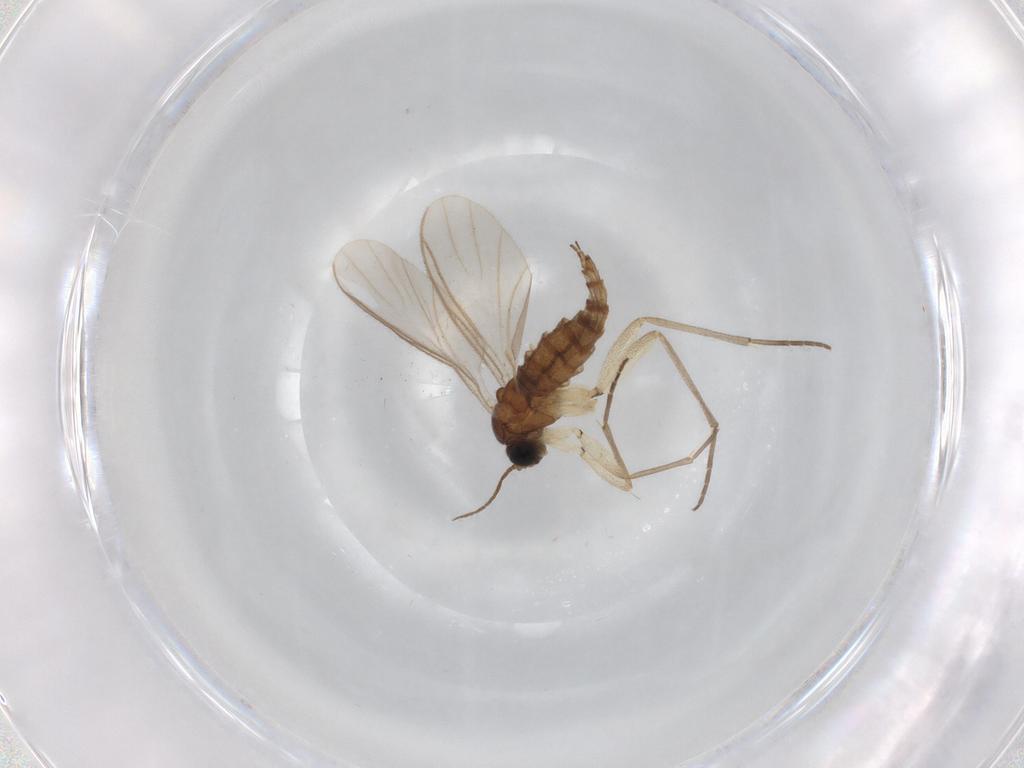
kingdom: Animalia
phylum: Arthropoda
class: Insecta
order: Diptera
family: Sciaridae
